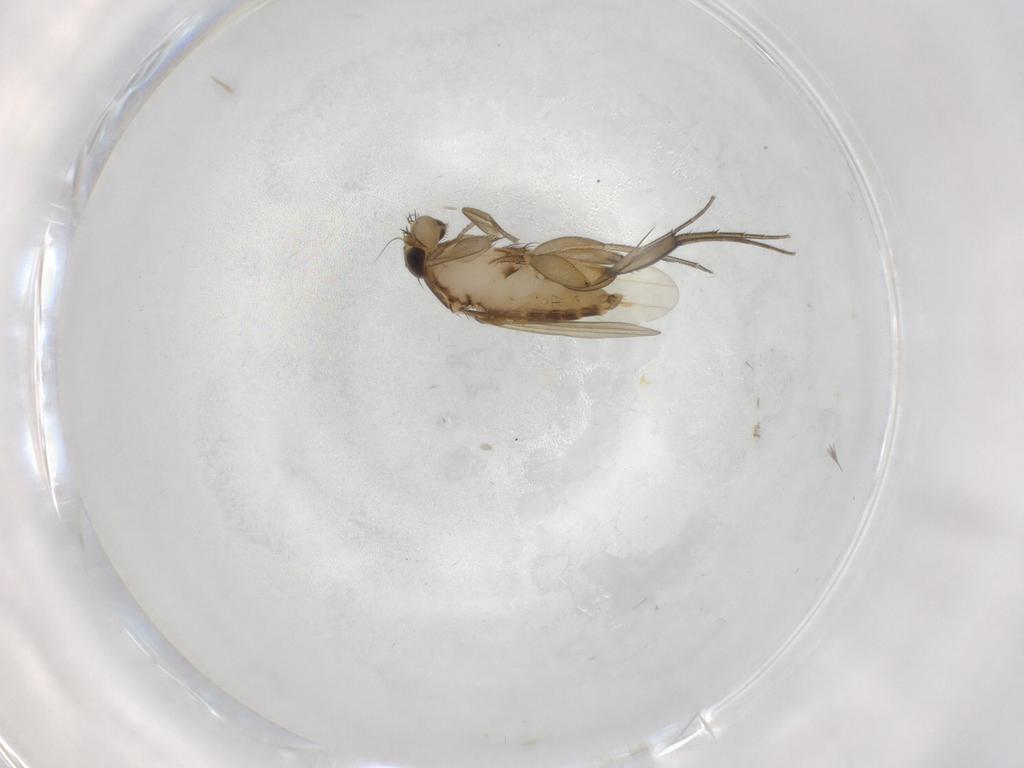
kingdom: Animalia
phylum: Arthropoda
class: Insecta
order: Diptera
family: Phoridae
